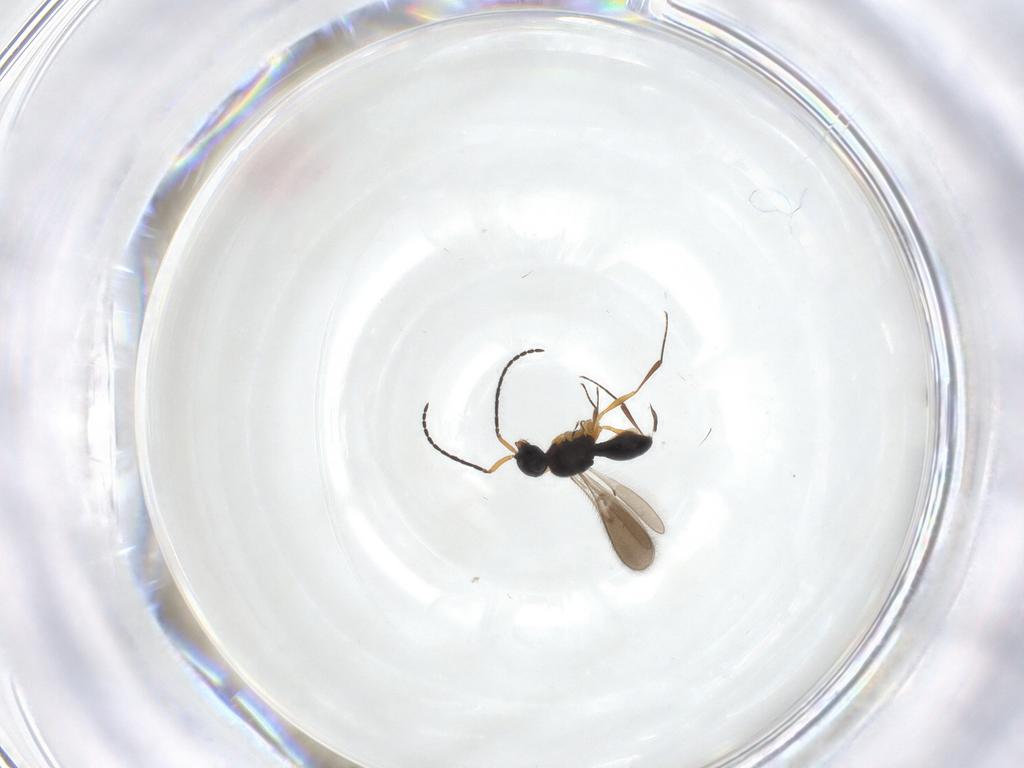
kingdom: Animalia
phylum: Arthropoda
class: Insecta
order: Hymenoptera
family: Scelionidae
